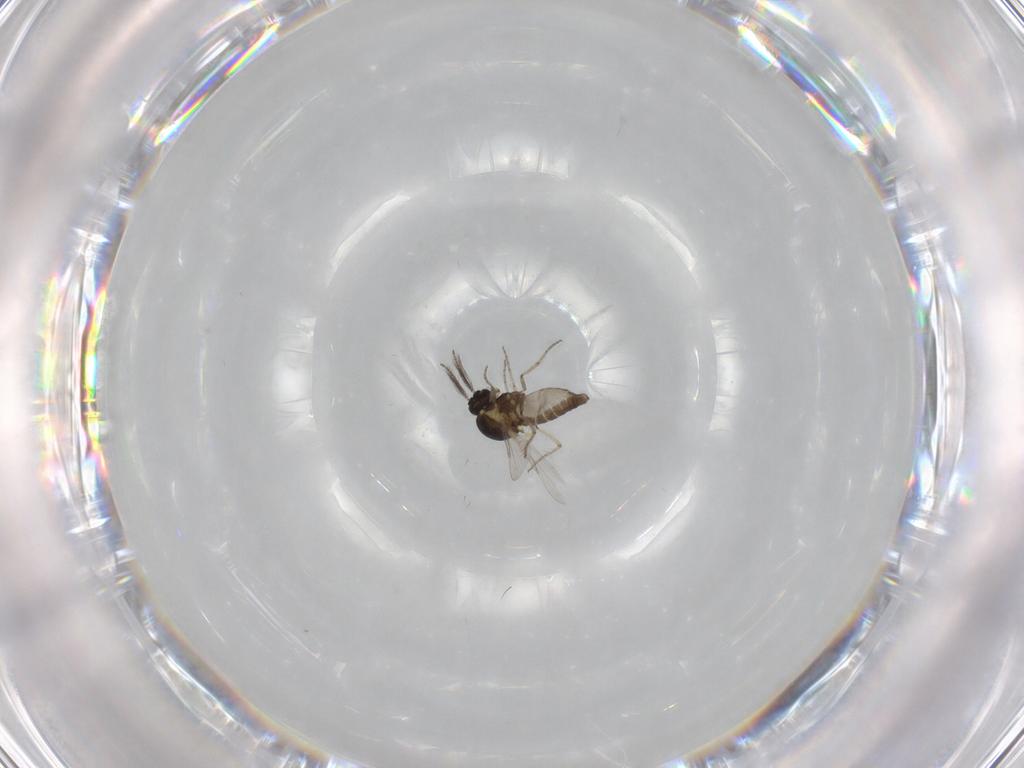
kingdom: Animalia
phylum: Arthropoda
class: Insecta
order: Diptera
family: Ceratopogonidae
